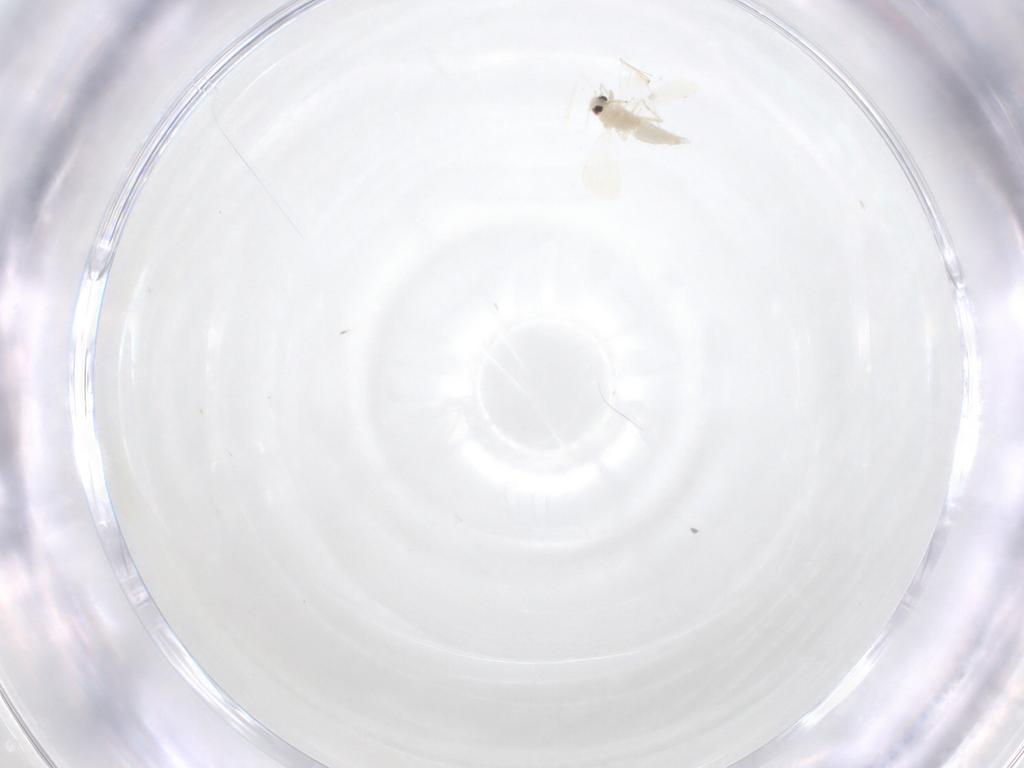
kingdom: Animalia
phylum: Arthropoda
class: Insecta
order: Hemiptera
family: Aleyrodidae
